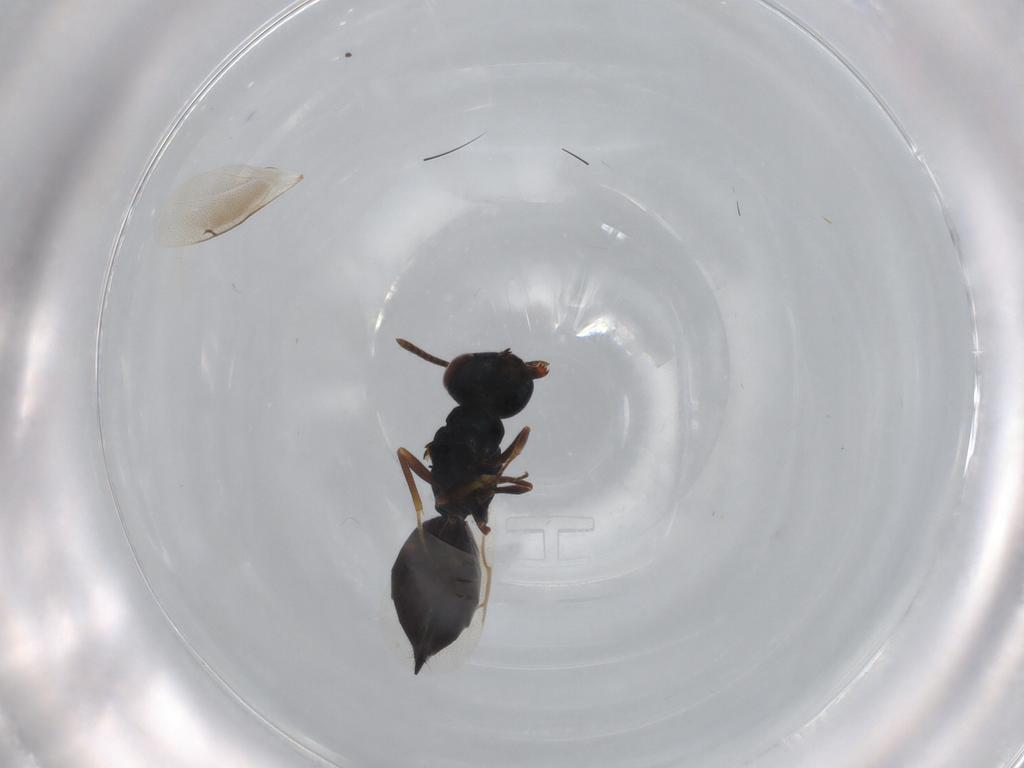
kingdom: Animalia
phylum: Arthropoda
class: Insecta
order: Hymenoptera
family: Pteromalidae
